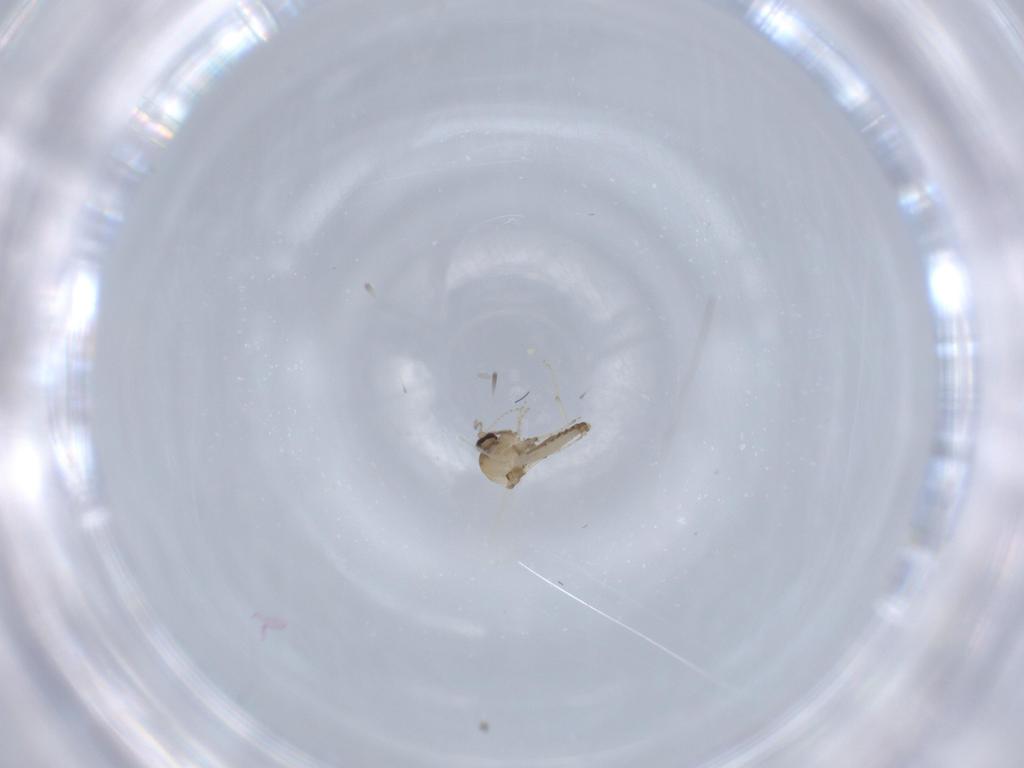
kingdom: Animalia
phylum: Arthropoda
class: Insecta
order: Diptera
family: Ceratopogonidae
